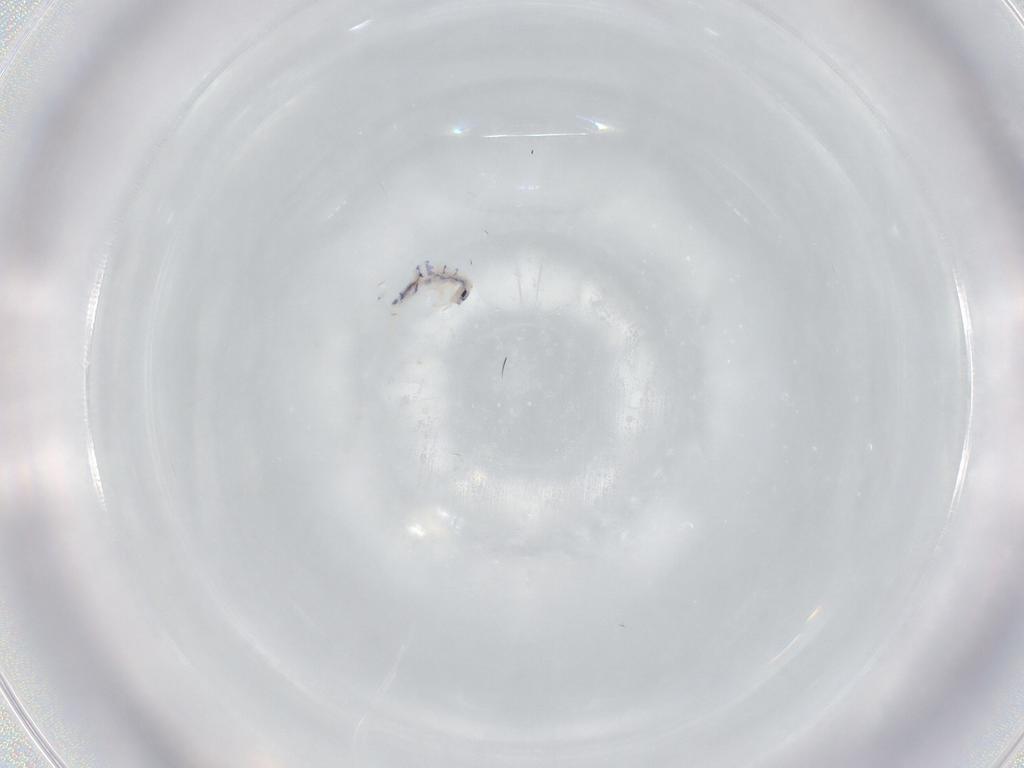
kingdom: Animalia
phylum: Arthropoda
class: Collembola
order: Entomobryomorpha
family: Entomobryidae
